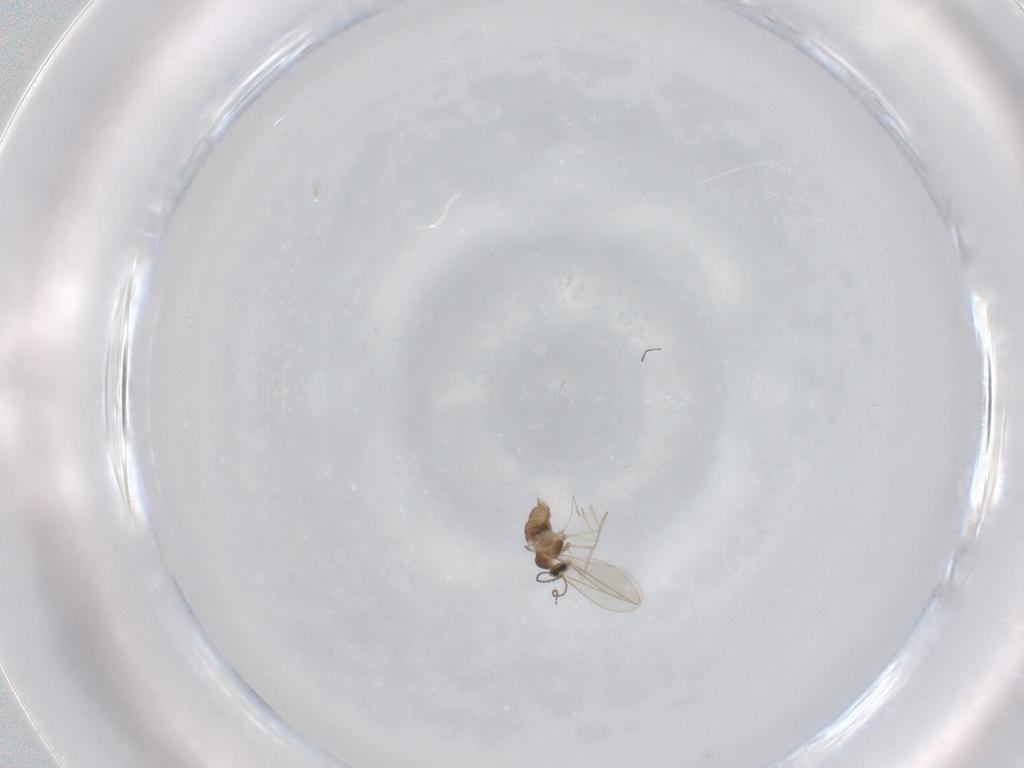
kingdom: Animalia
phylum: Arthropoda
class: Insecta
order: Diptera
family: Cecidomyiidae
